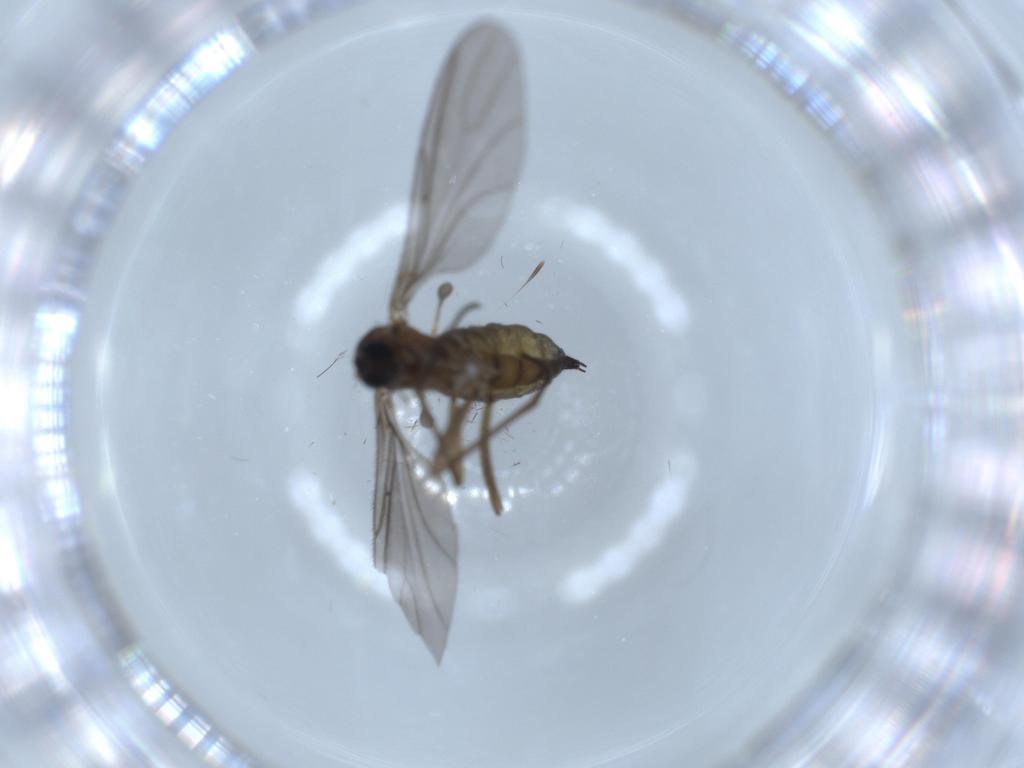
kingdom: Animalia
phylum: Arthropoda
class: Insecta
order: Diptera
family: Sciaridae
